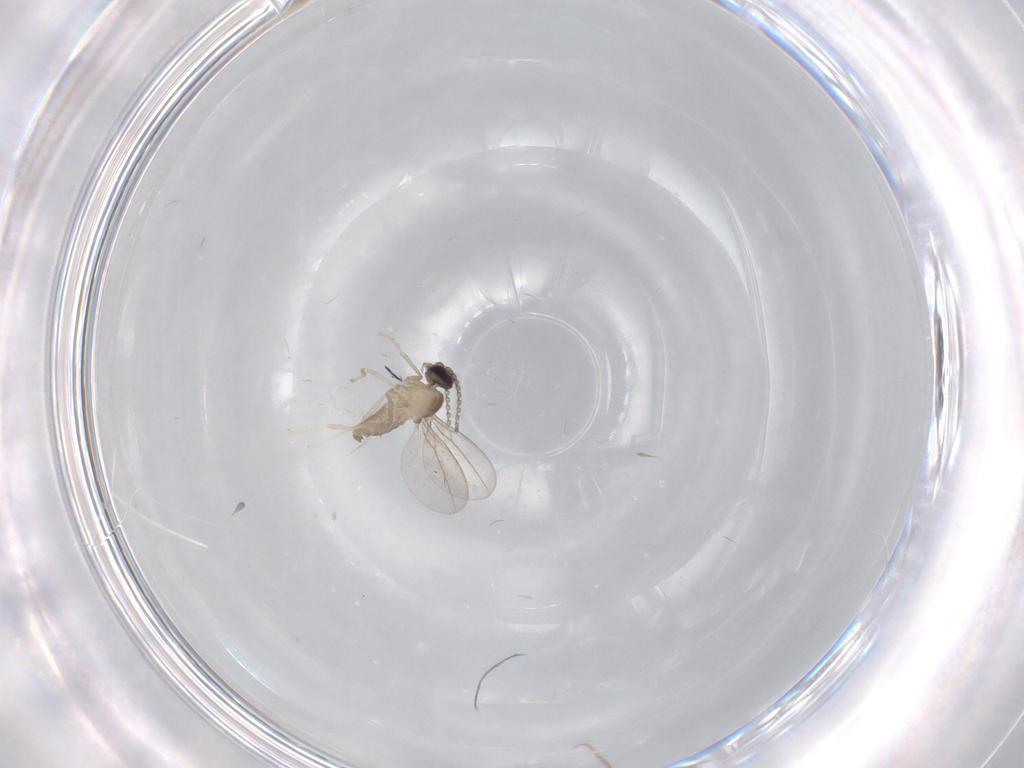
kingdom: Animalia
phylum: Arthropoda
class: Insecta
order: Diptera
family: Cecidomyiidae
